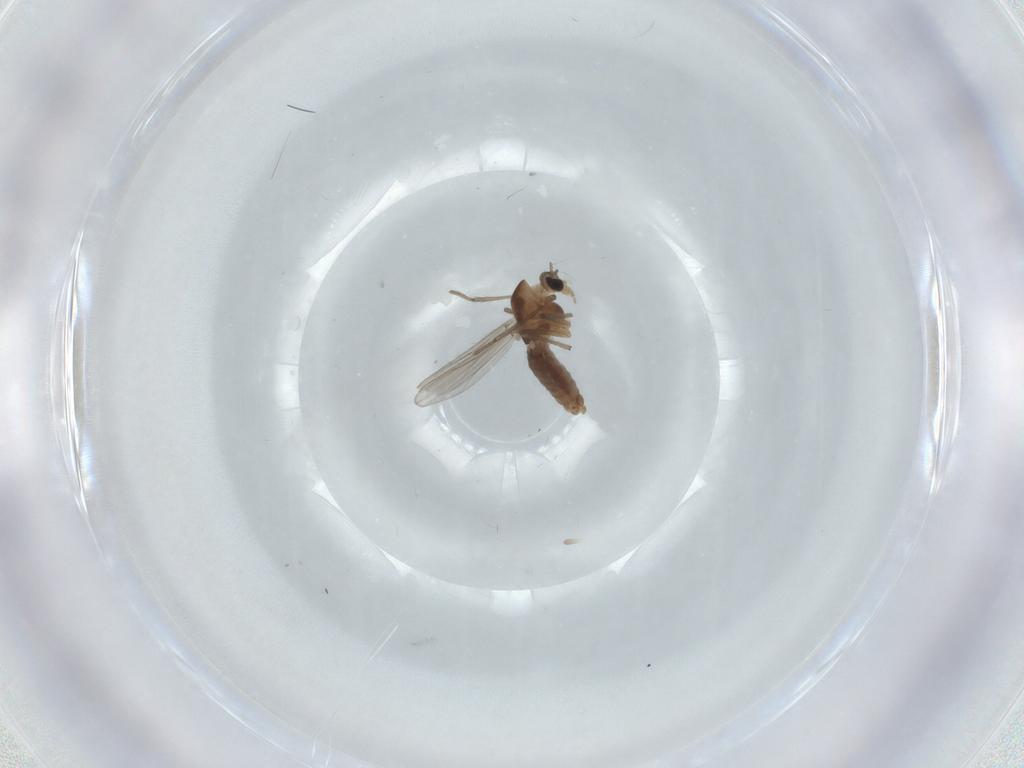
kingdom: Animalia
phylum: Arthropoda
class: Insecta
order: Diptera
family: Chironomidae
